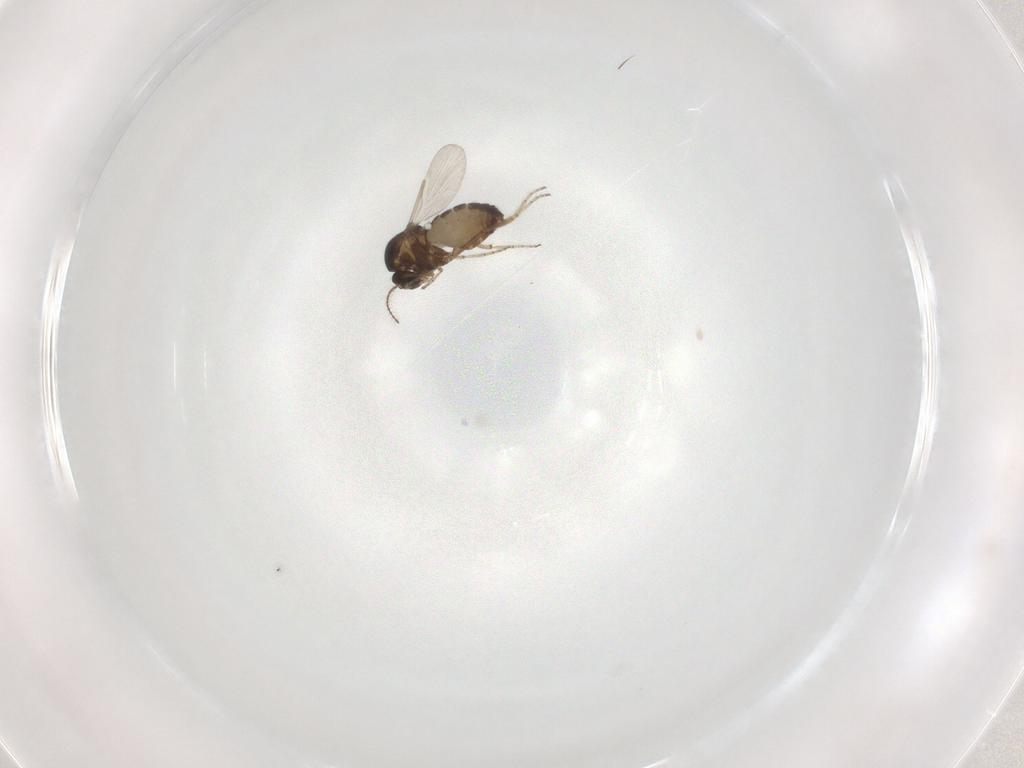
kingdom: Animalia
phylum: Arthropoda
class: Insecta
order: Diptera
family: Ceratopogonidae
